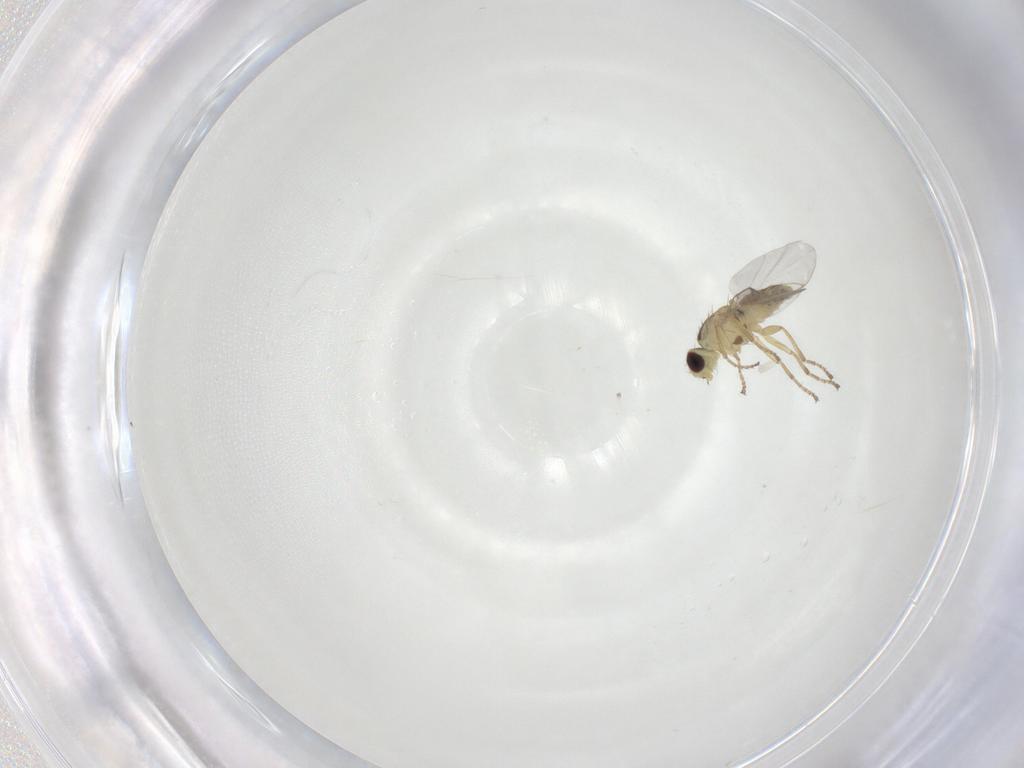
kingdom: Animalia
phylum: Arthropoda
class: Insecta
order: Diptera
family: Agromyzidae
